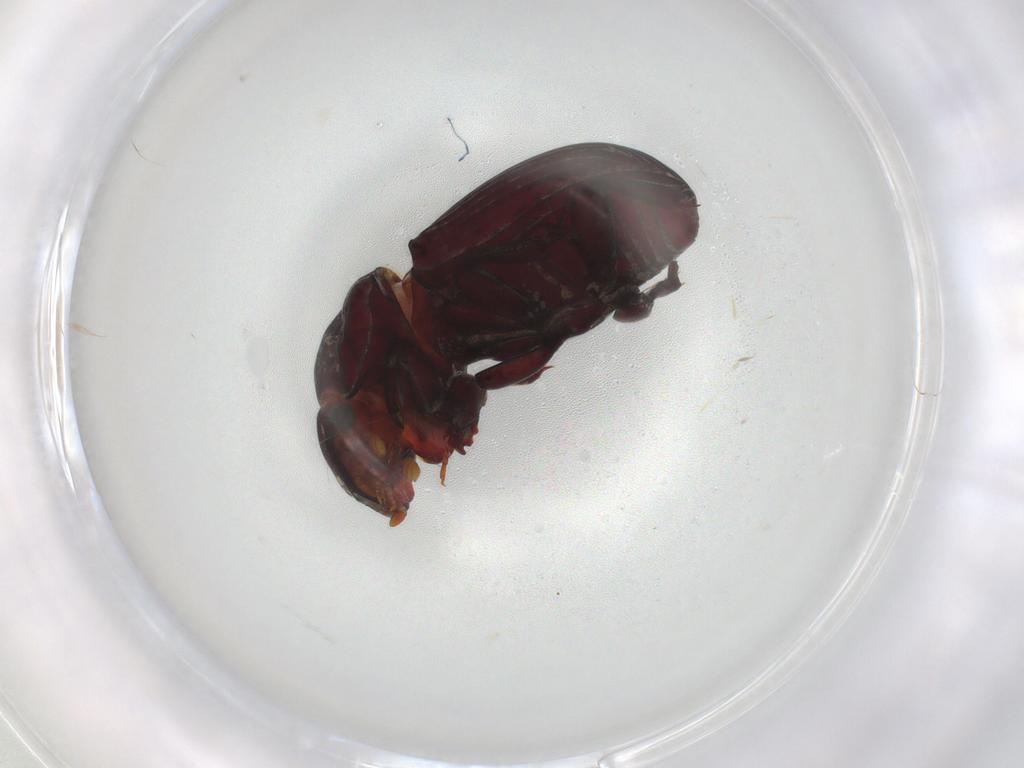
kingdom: Animalia
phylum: Arthropoda
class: Insecta
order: Coleoptera
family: Scarabaeidae
